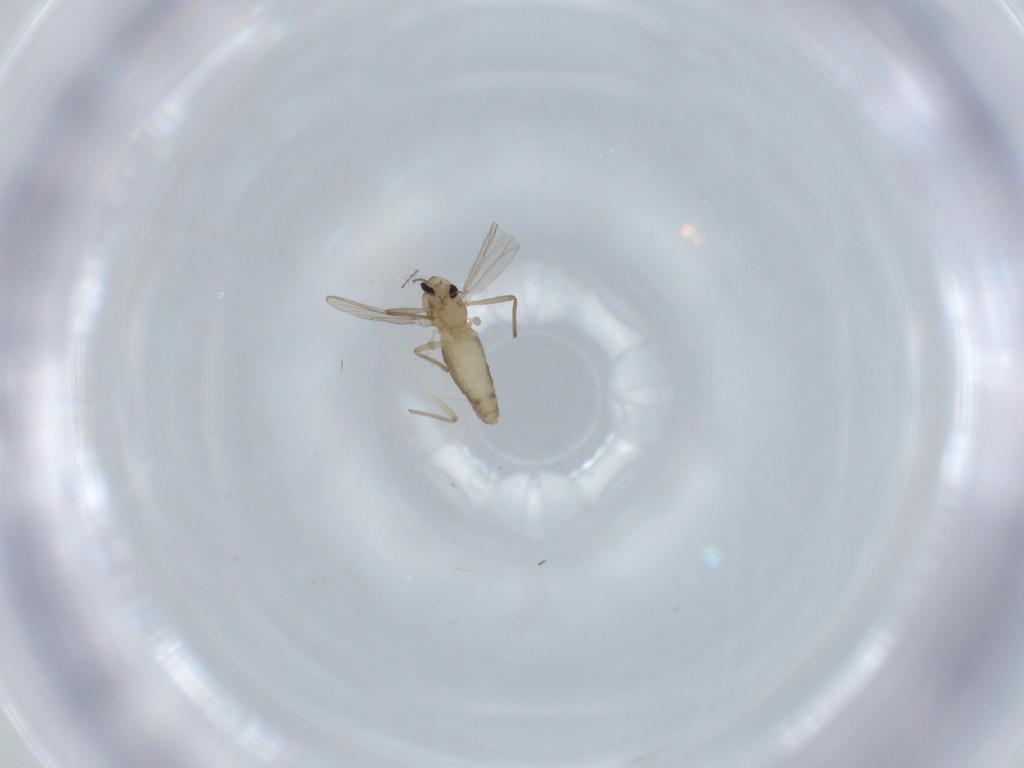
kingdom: Animalia
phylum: Arthropoda
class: Insecta
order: Diptera
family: Chironomidae
